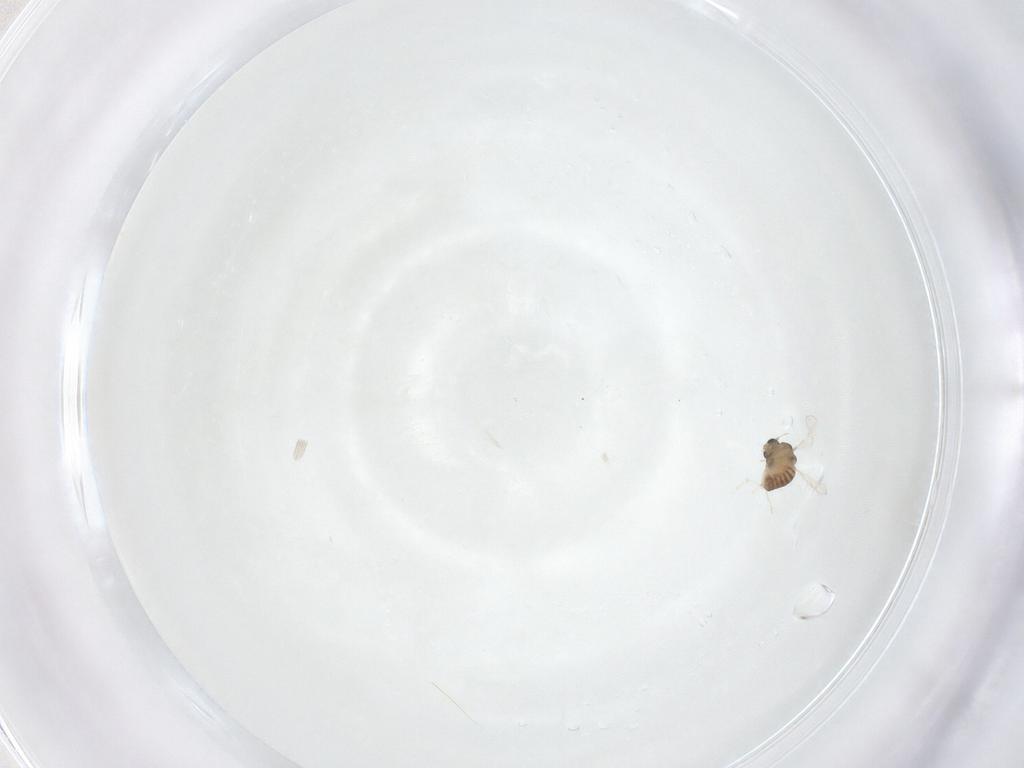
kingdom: Animalia
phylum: Arthropoda
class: Insecta
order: Diptera
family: Chironomidae
